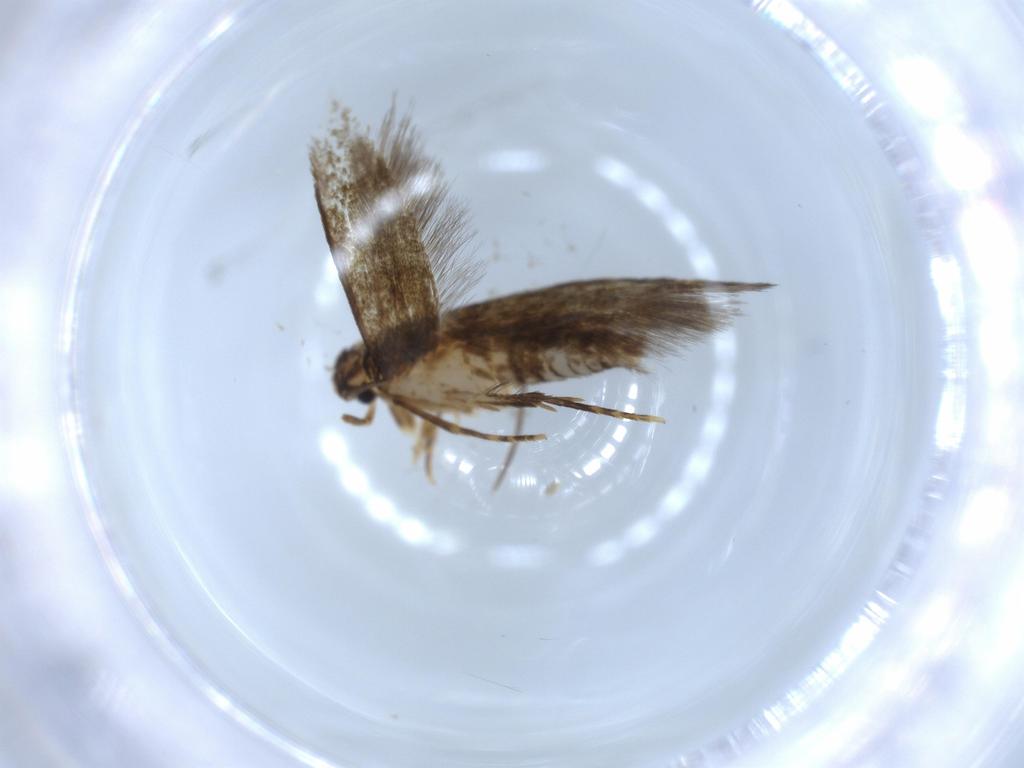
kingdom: Animalia
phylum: Arthropoda
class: Insecta
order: Lepidoptera
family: Tineidae
